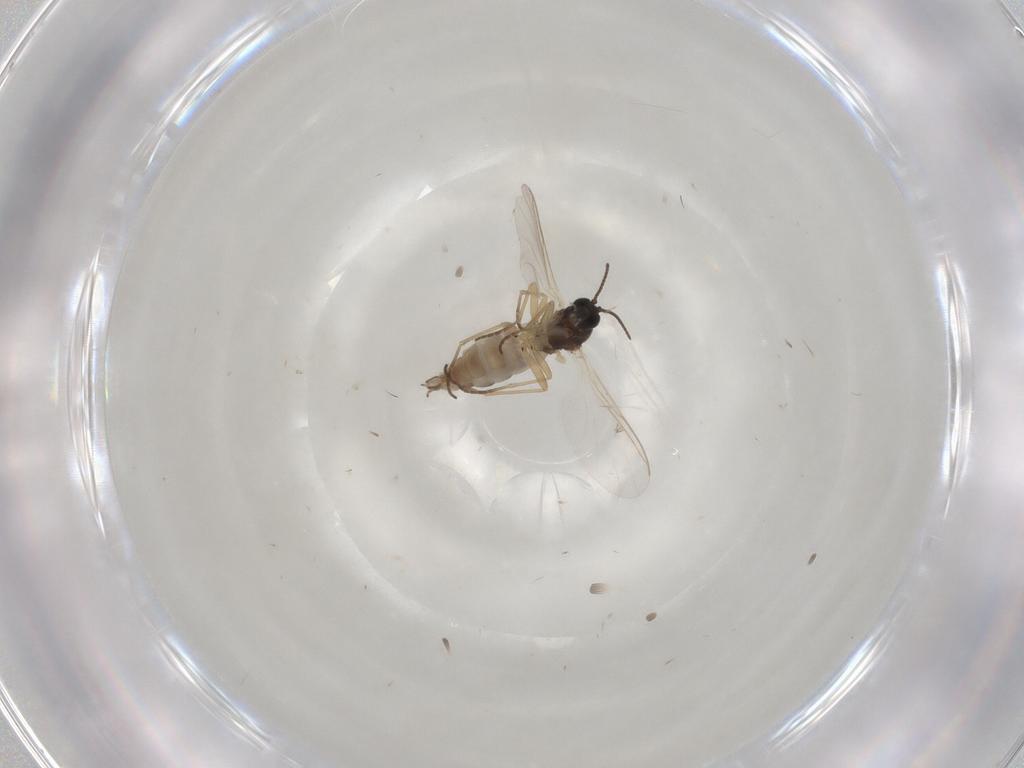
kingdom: Animalia
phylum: Arthropoda
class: Insecta
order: Diptera
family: Sciaridae
